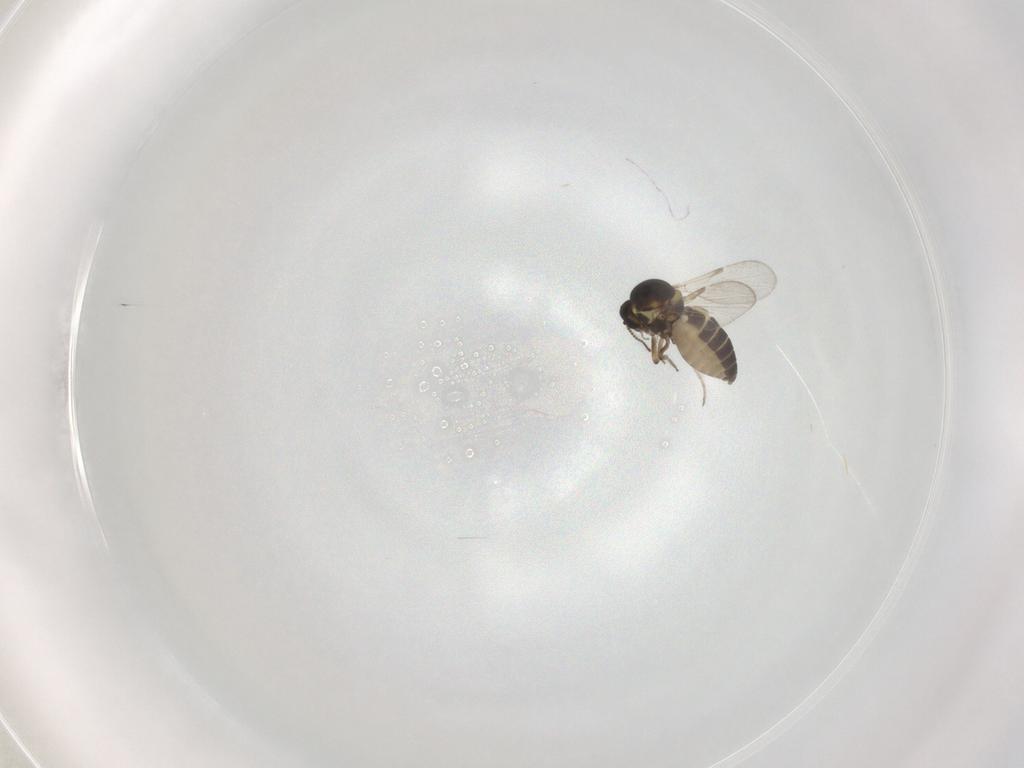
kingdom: Animalia
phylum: Arthropoda
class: Insecta
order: Diptera
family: Ceratopogonidae
